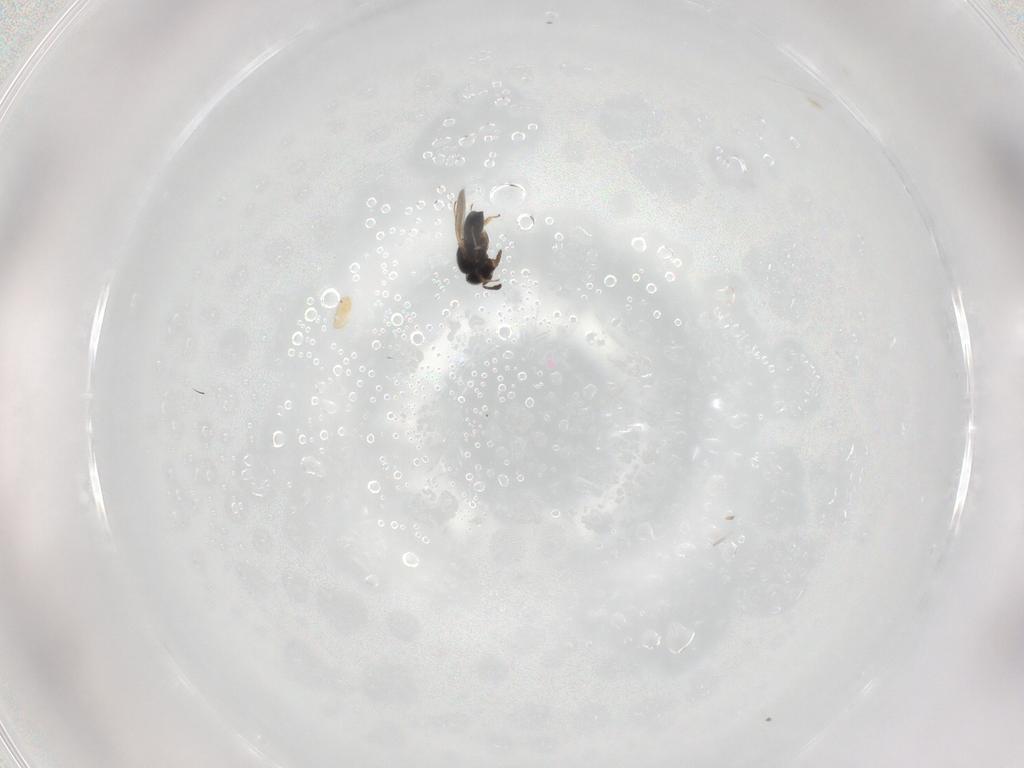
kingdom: Animalia
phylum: Arthropoda
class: Insecta
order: Hymenoptera
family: Scelionidae
